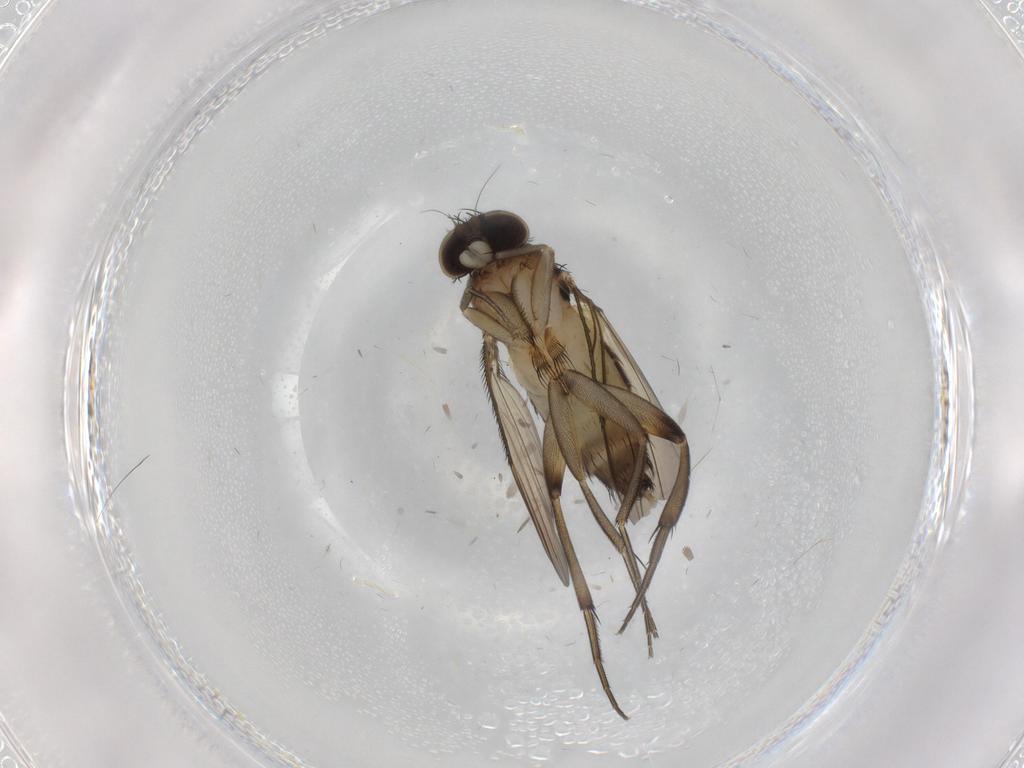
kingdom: Animalia
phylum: Arthropoda
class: Insecta
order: Diptera
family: Phoridae
